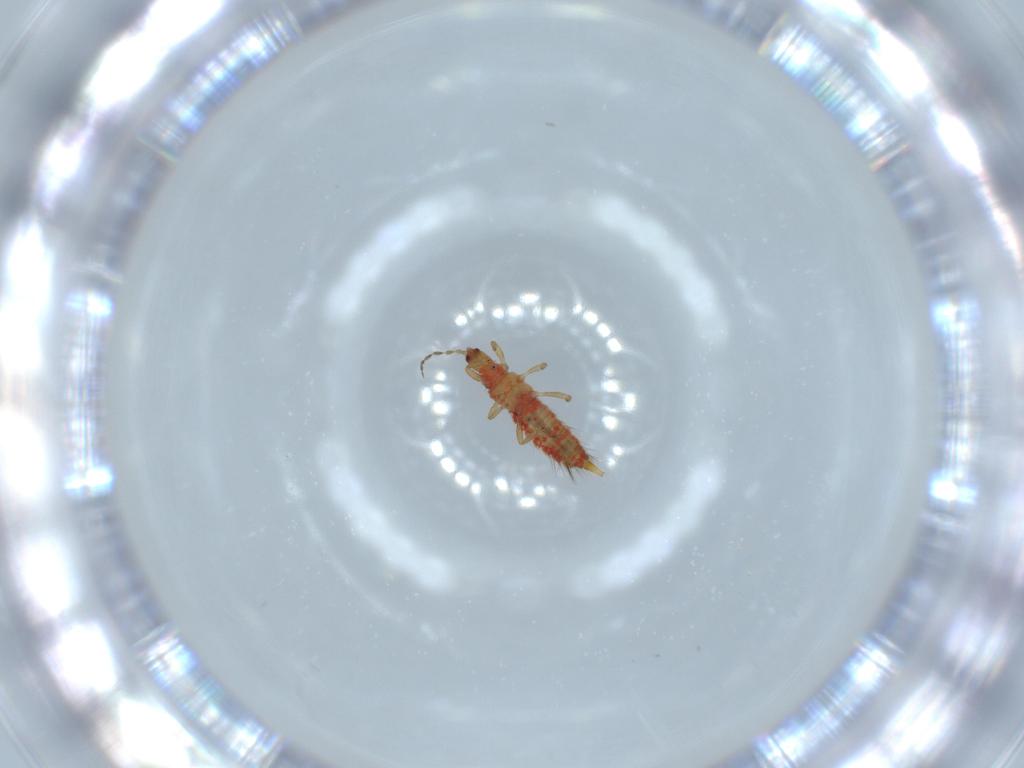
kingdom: Animalia
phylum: Arthropoda
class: Insecta
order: Thysanoptera
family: Phlaeothripidae
